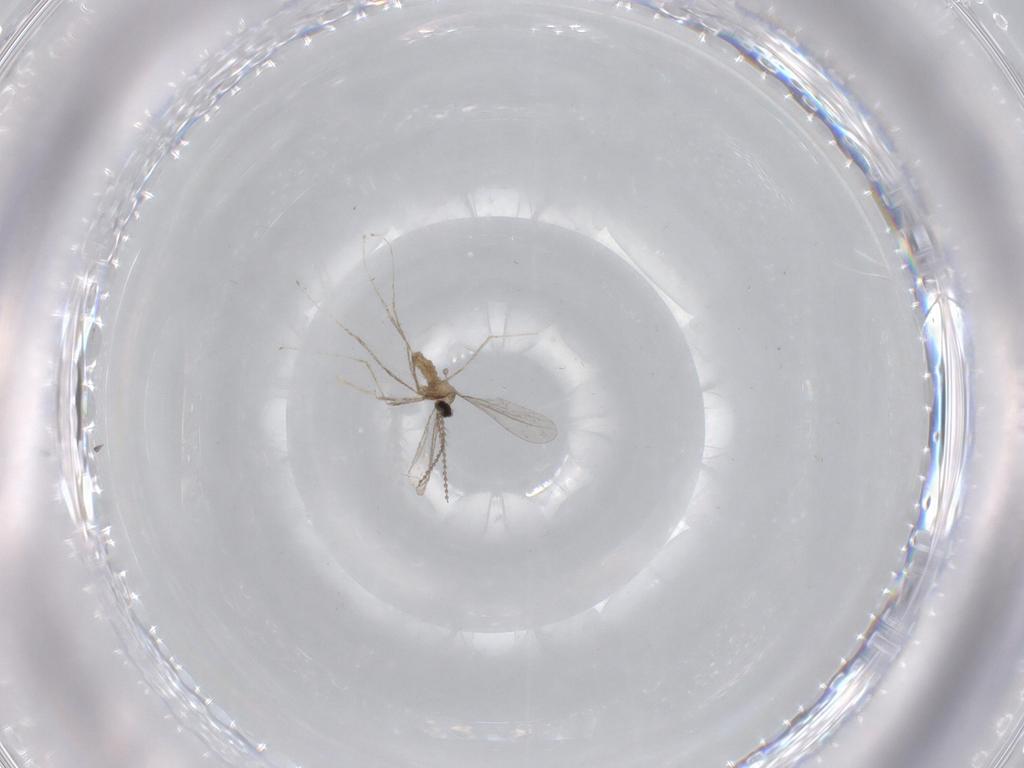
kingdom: Animalia
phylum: Arthropoda
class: Insecta
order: Diptera
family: Cecidomyiidae
